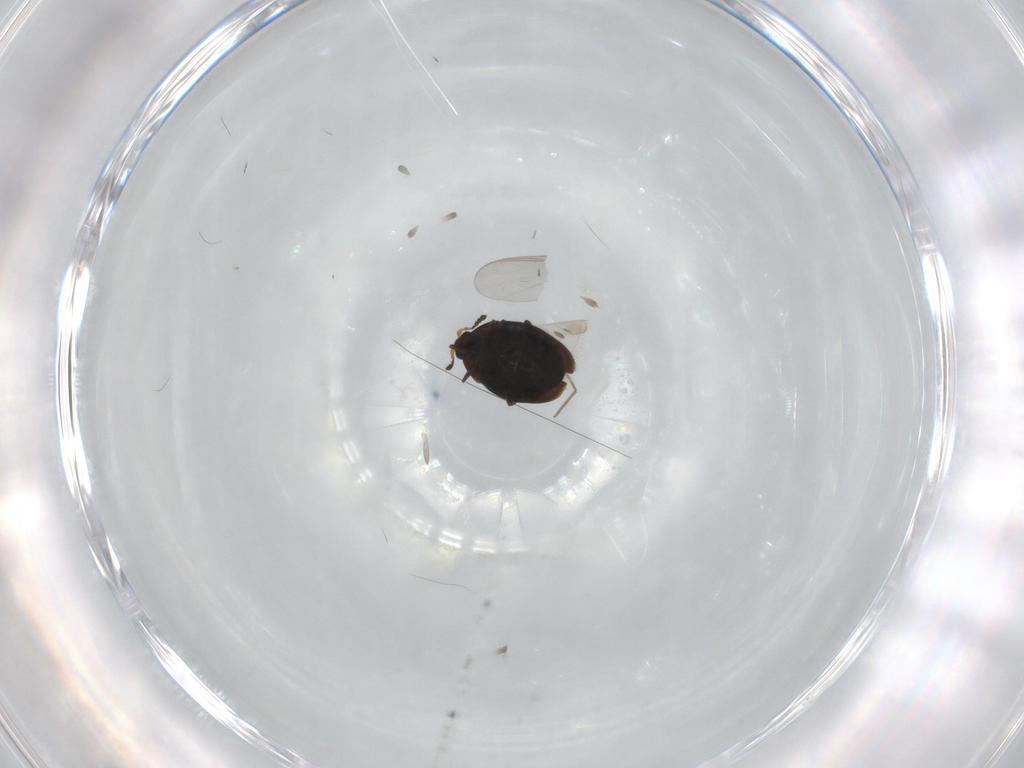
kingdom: Animalia
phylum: Arthropoda
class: Insecta
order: Coleoptera
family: Corylophidae
